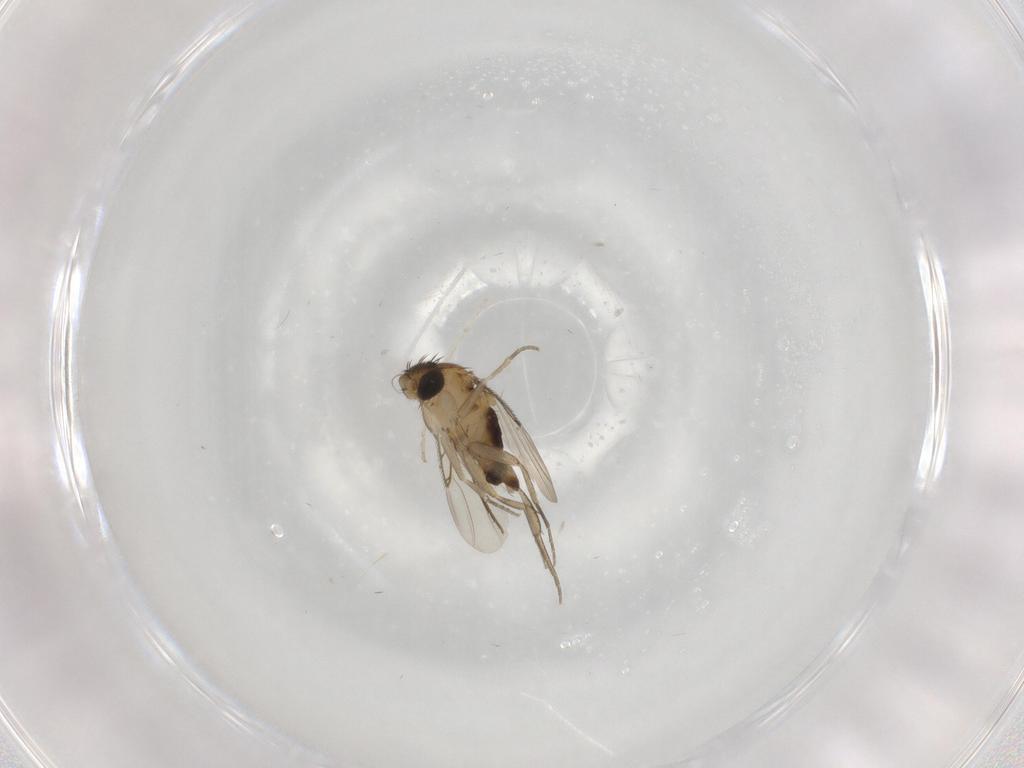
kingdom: Animalia
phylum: Arthropoda
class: Insecta
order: Diptera
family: Phoridae
